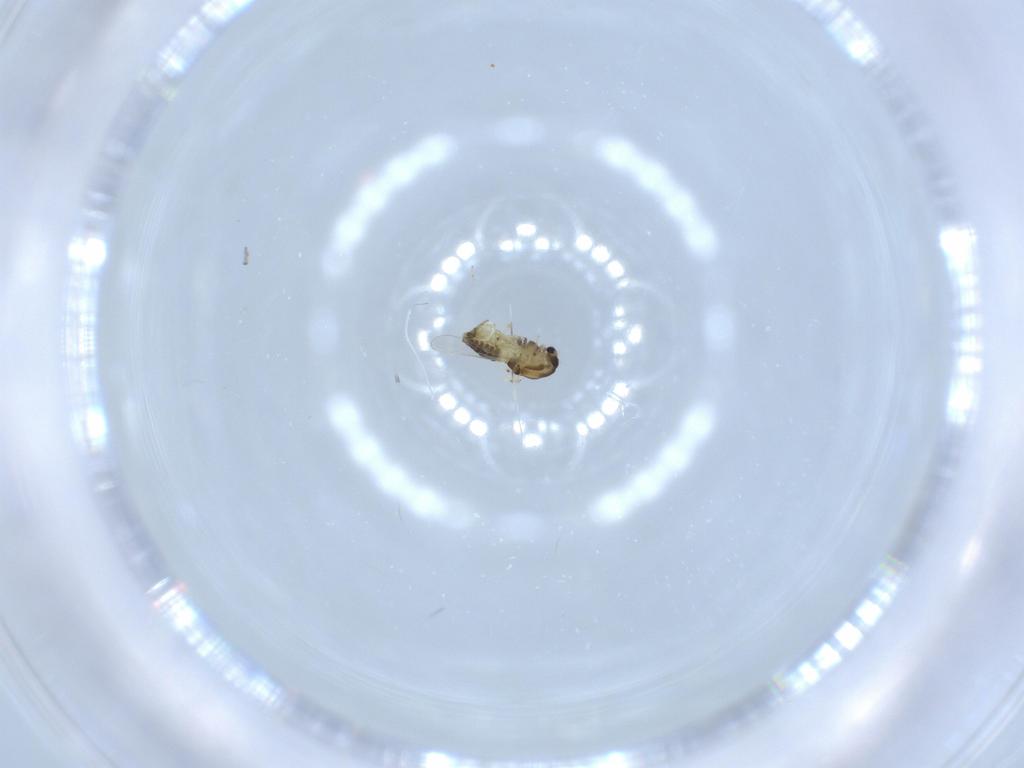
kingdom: Animalia
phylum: Arthropoda
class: Insecta
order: Diptera
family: Chironomidae
